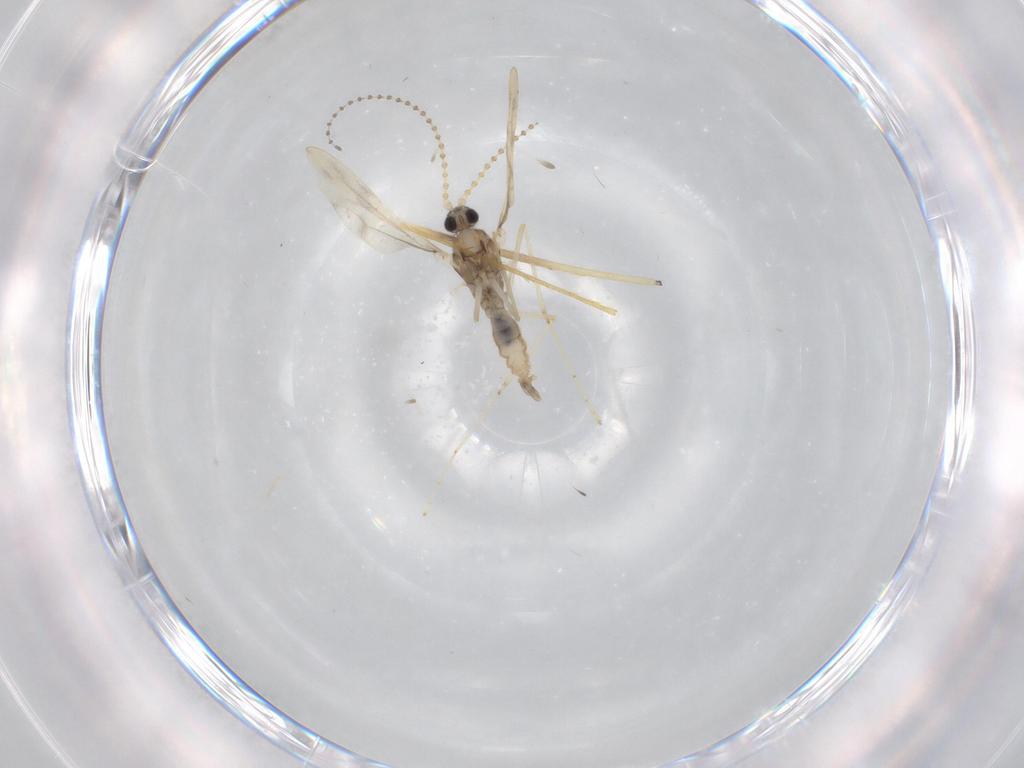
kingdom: Animalia
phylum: Arthropoda
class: Insecta
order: Diptera
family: Cecidomyiidae
